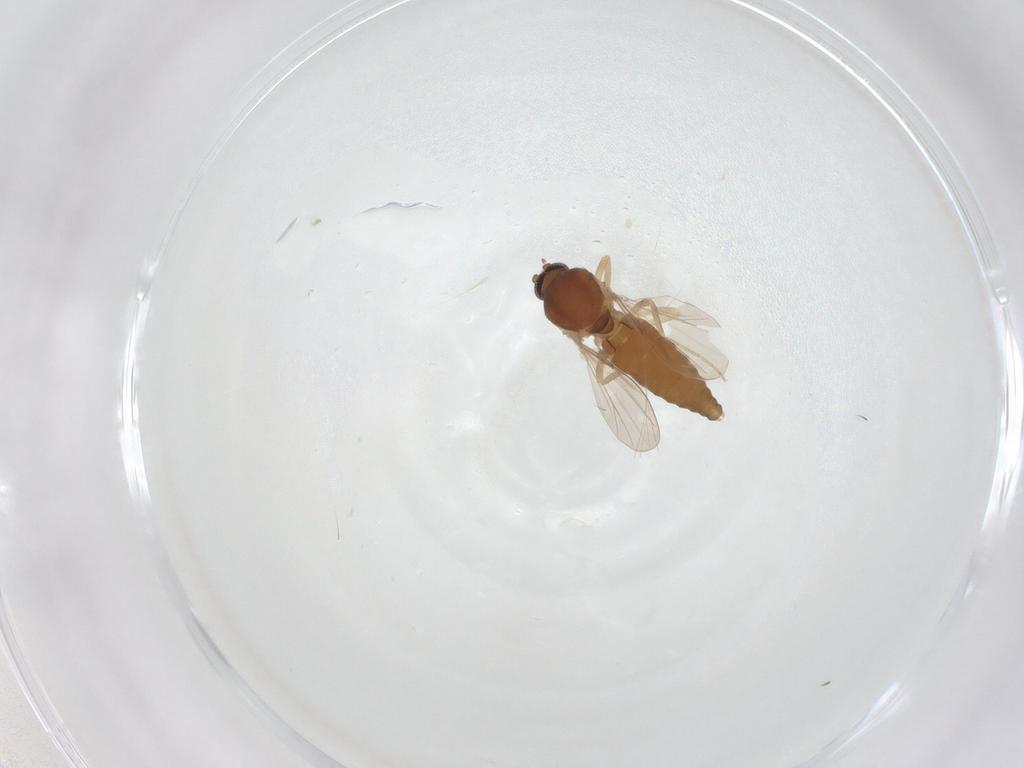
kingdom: Animalia
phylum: Arthropoda
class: Insecta
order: Diptera
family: Ceratopogonidae
